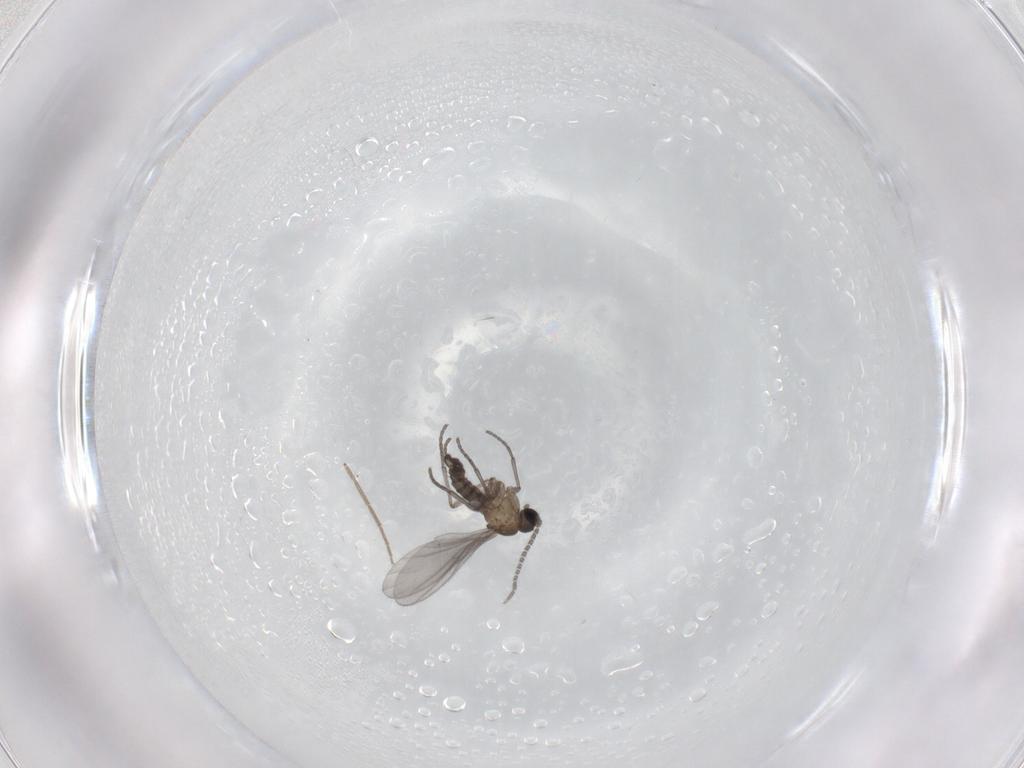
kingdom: Animalia
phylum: Arthropoda
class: Insecta
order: Diptera
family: Sciaridae
